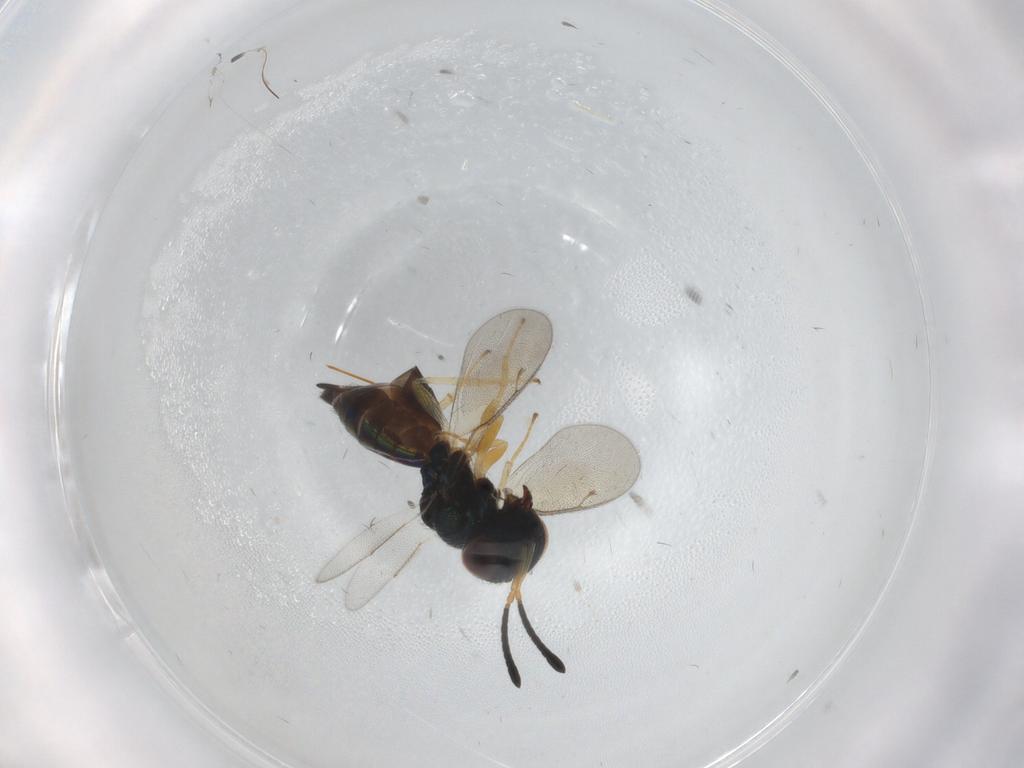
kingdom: Animalia
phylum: Arthropoda
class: Insecta
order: Hymenoptera
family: Pteromalidae
